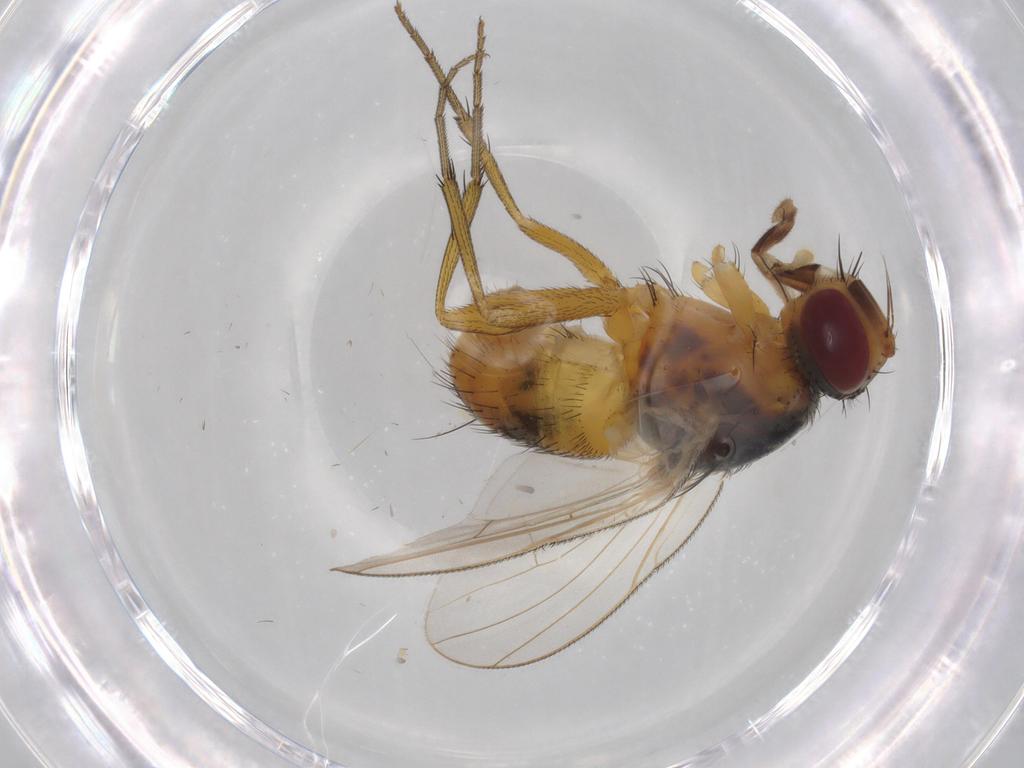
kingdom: Animalia
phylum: Arthropoda
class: Insecta
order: Diptera
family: Muscidae
